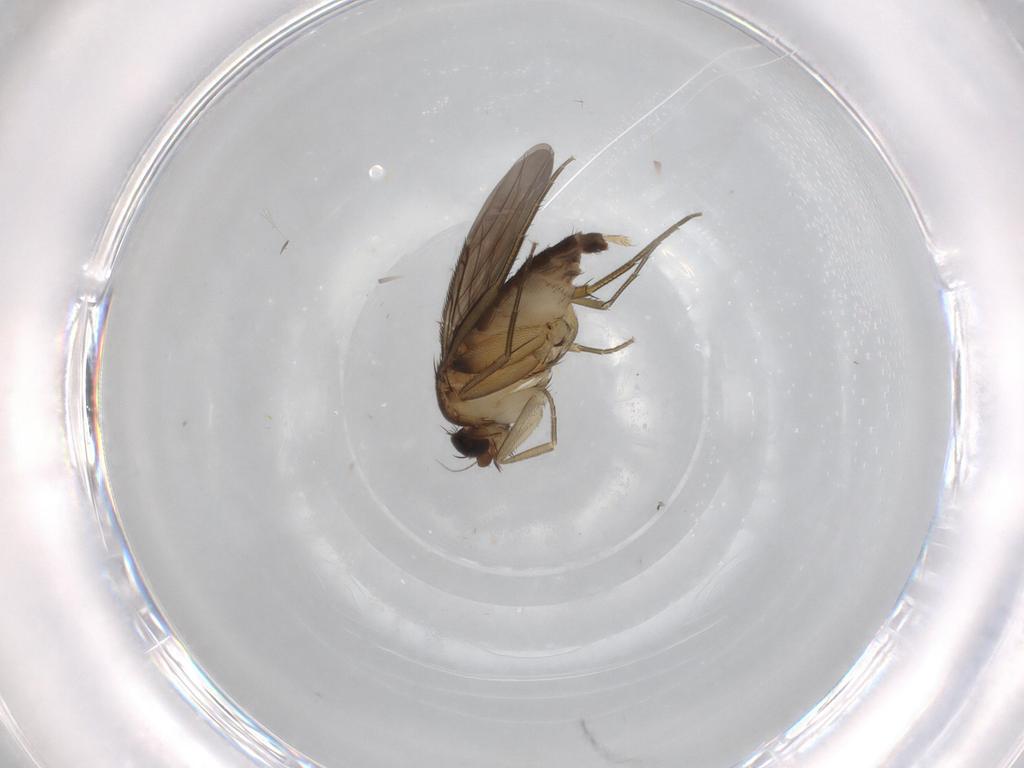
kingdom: Animalia
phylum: Arthropoda
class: Insecta
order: Diptera
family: Phoridae
